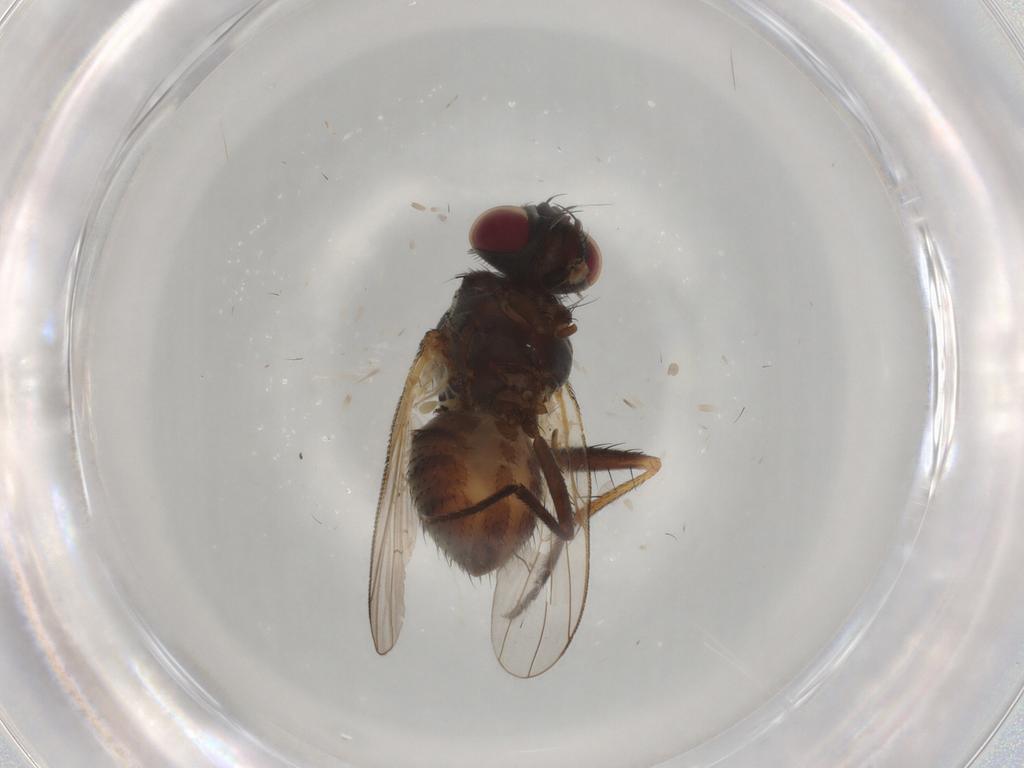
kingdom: Animalia
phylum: Arthropoda
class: Insecta
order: Diptera
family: Muscidae
